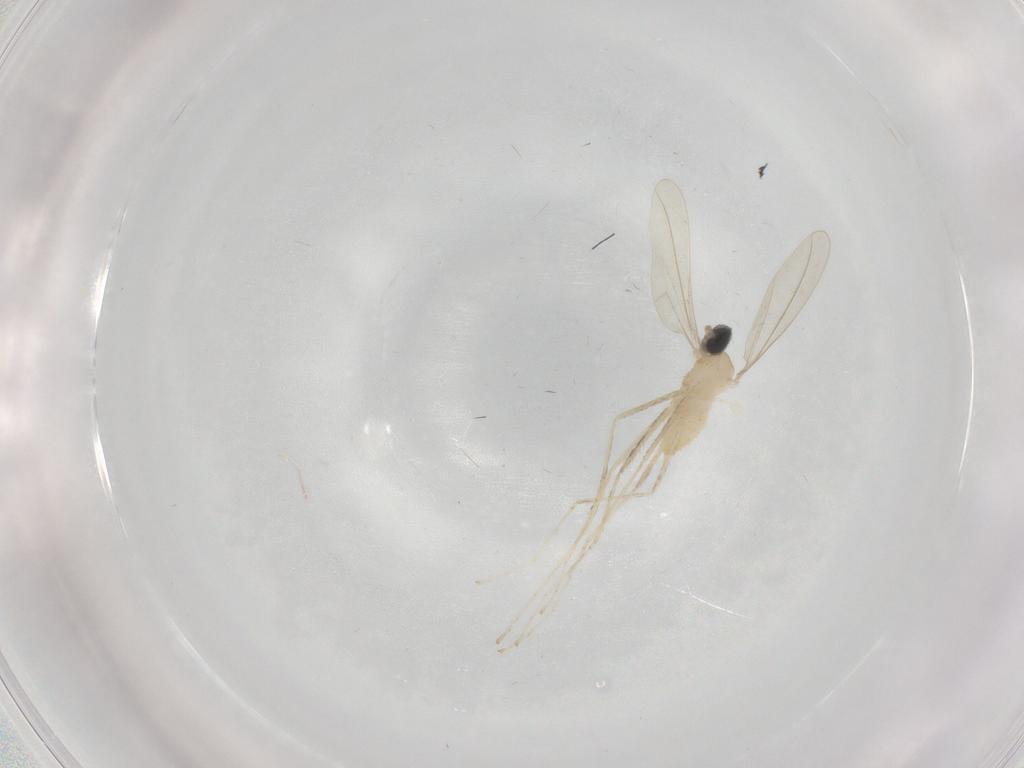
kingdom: Animalia
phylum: Arthropoda
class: Insecta
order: Diptera
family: Cecidomyiidae
